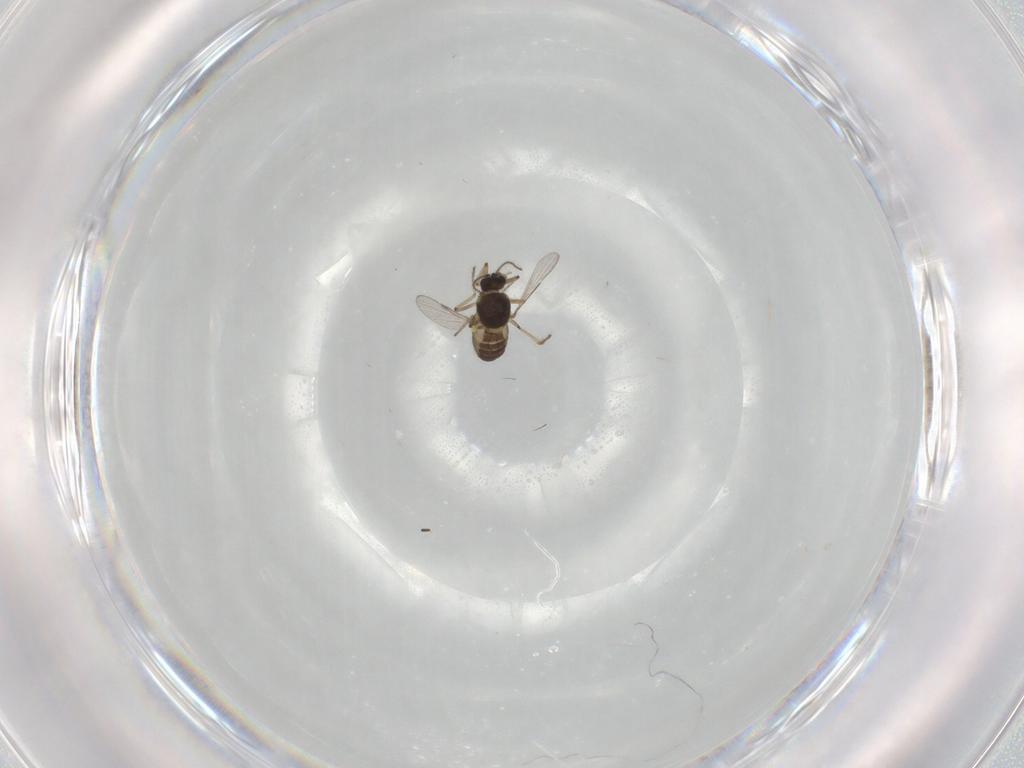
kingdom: Animalia
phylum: Arthropoda
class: Insecta
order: Diptera
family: Ceratopogonidae
